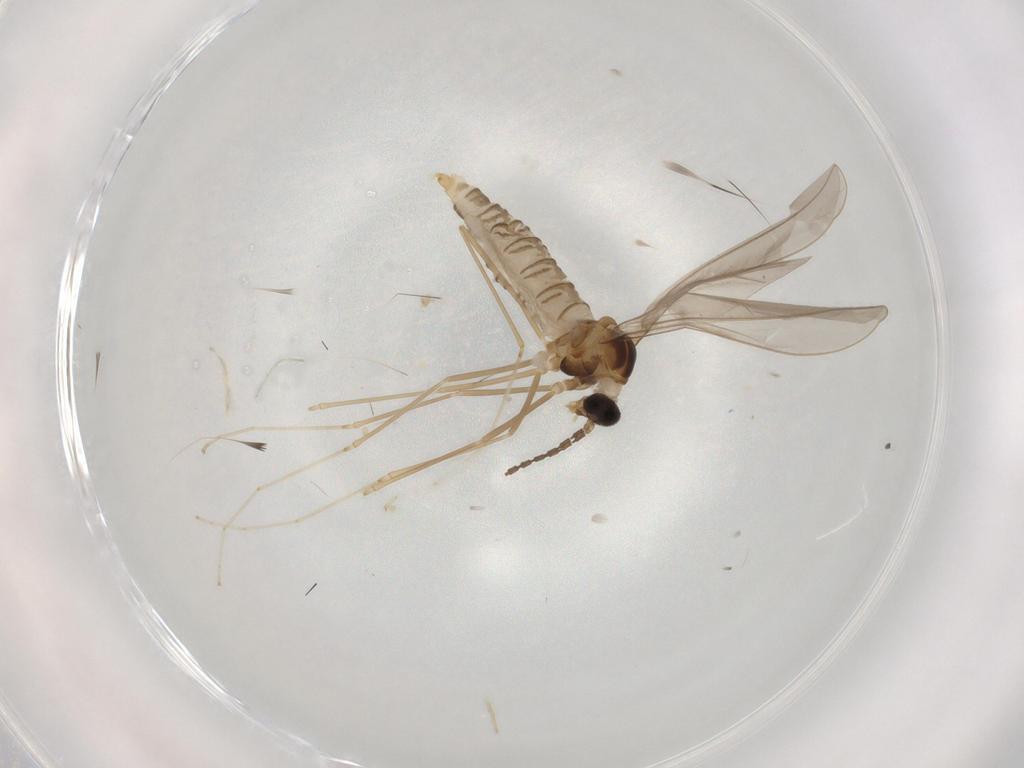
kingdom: Animalia
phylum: Arthropoda
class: Insecta
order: Diptera
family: Cecidomyiidae
